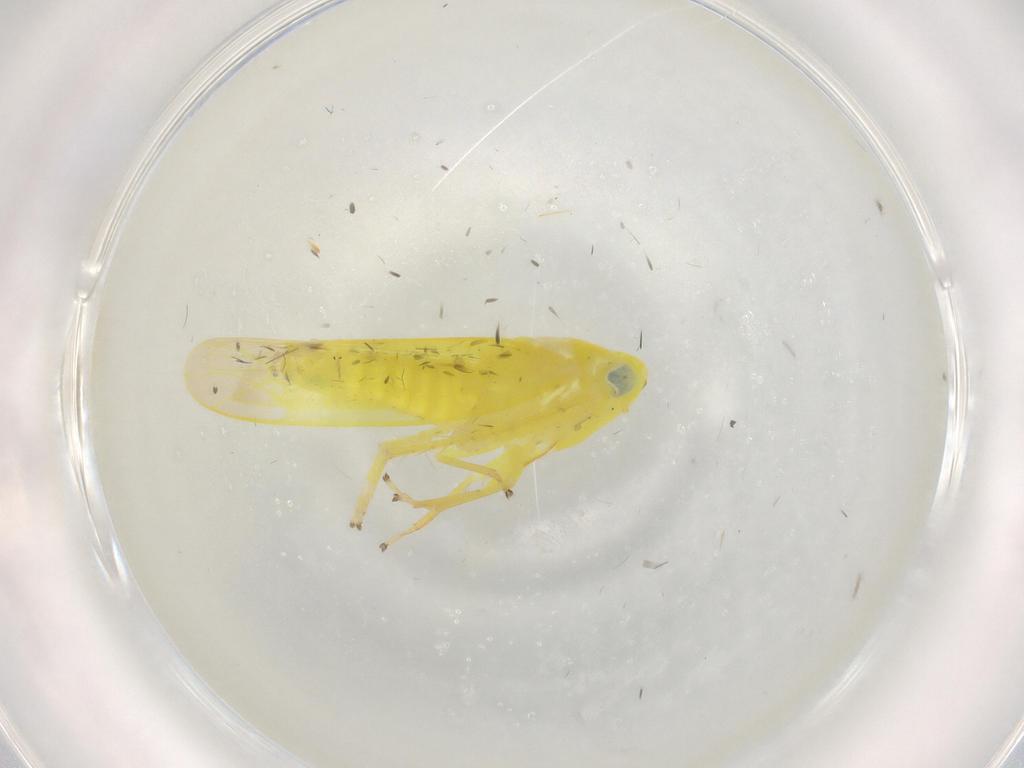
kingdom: Animalia
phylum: Arthropoda
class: Insecta
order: Hemiptera
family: Cicadellidae
